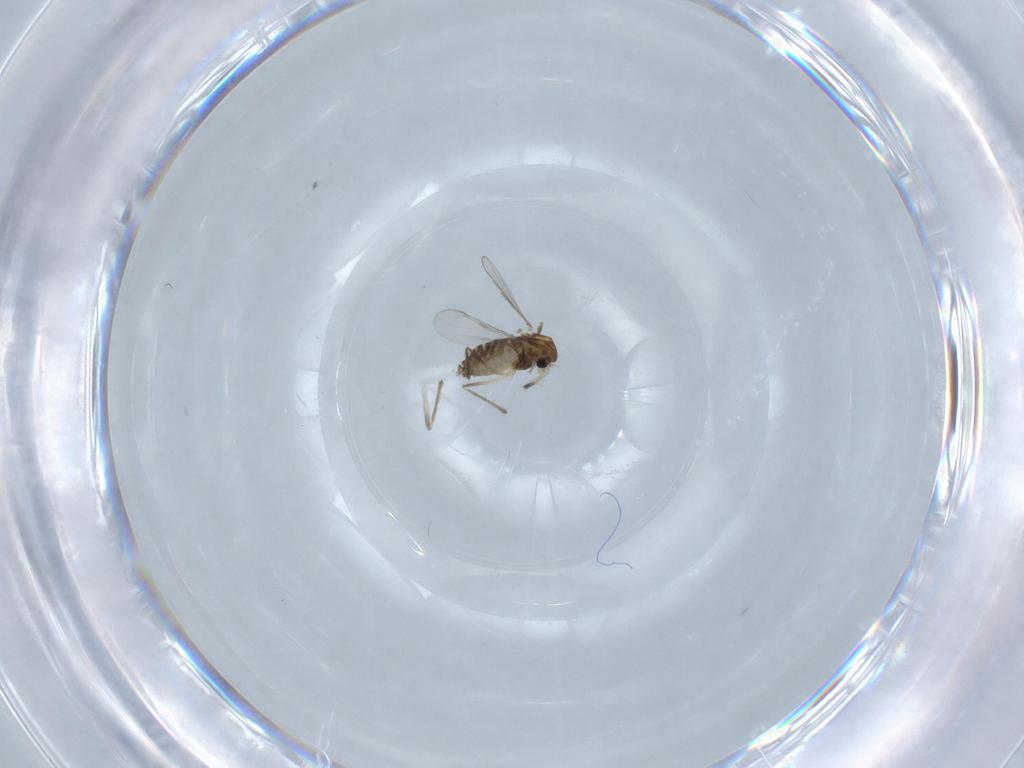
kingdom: Animalia
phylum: Arthropoda
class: Insecta
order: Diptera
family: Chironomidae
